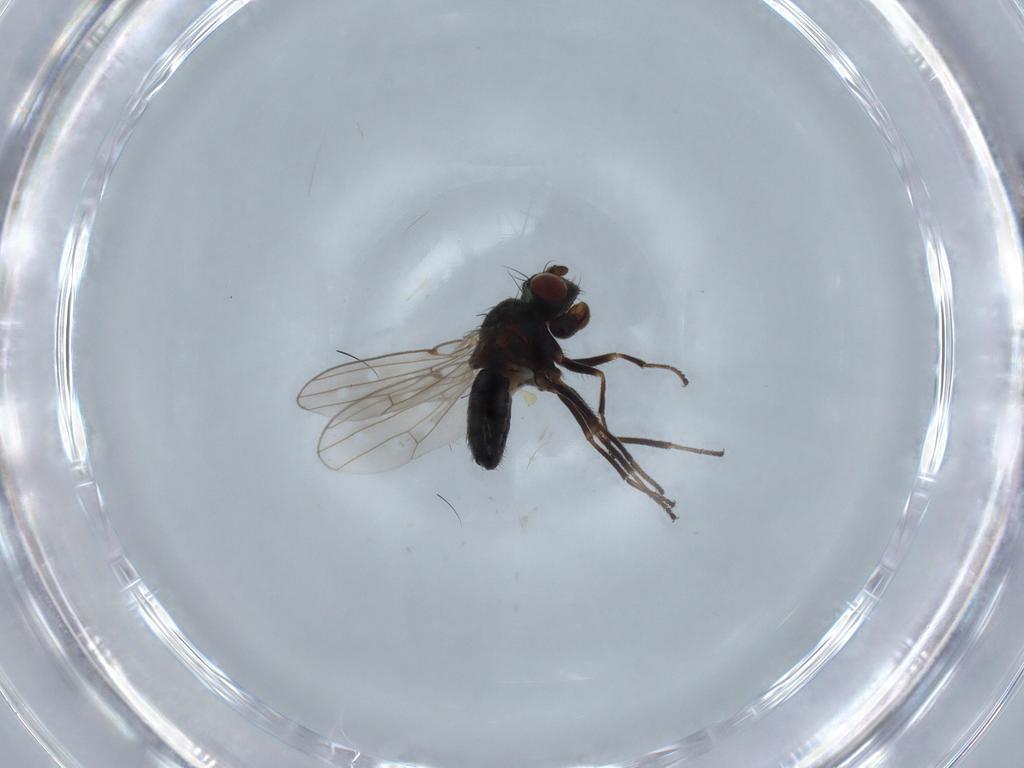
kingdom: Animalia
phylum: Arthropoda
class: Insecta
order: Diptera
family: Ephydridae
